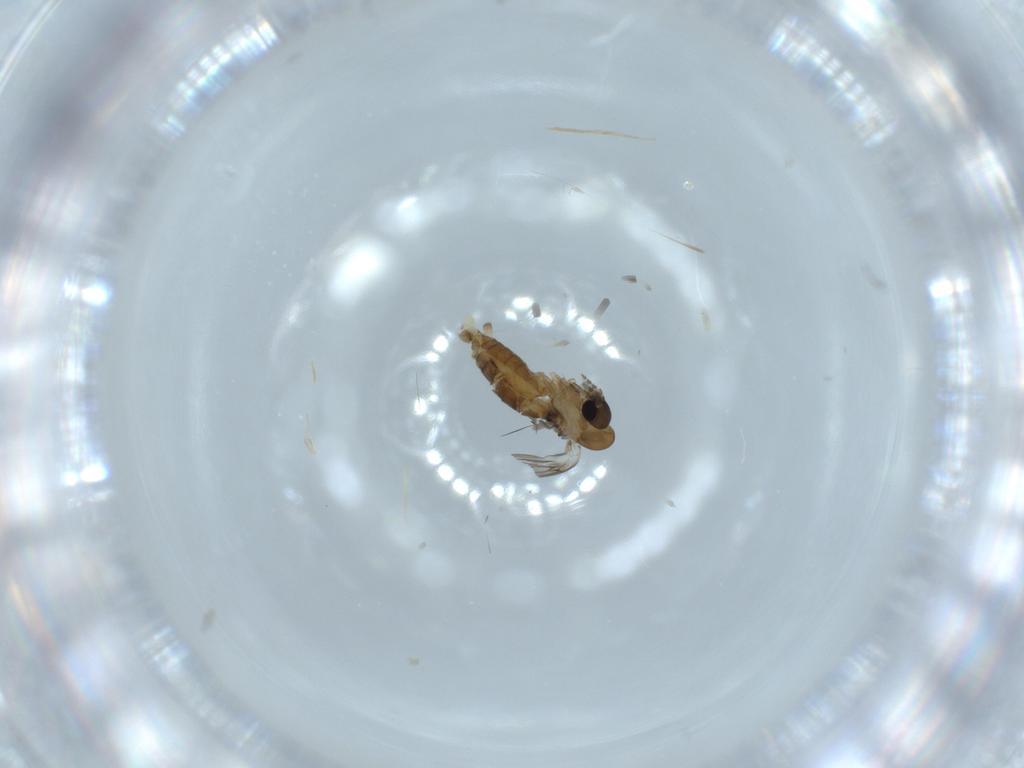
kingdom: Animalia
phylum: Arthropoda
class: Insecta
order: Diptera
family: Psychodidae
